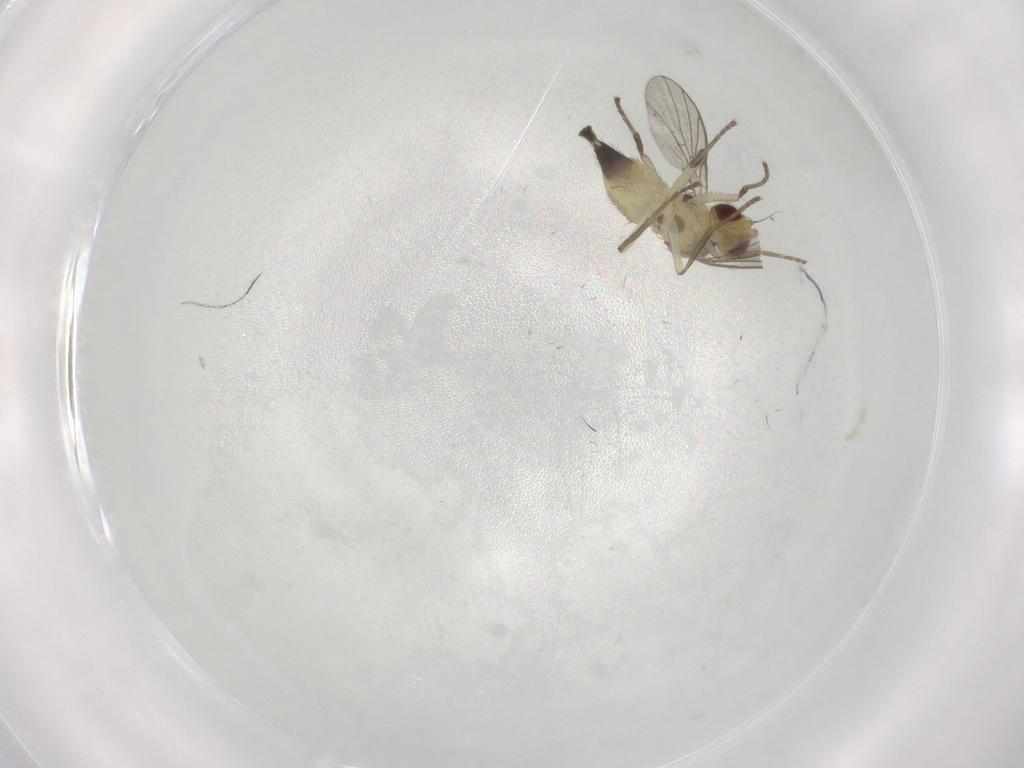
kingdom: Animalia
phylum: Arthropoda
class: Insecta
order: Diptera
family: Agromyzidae
